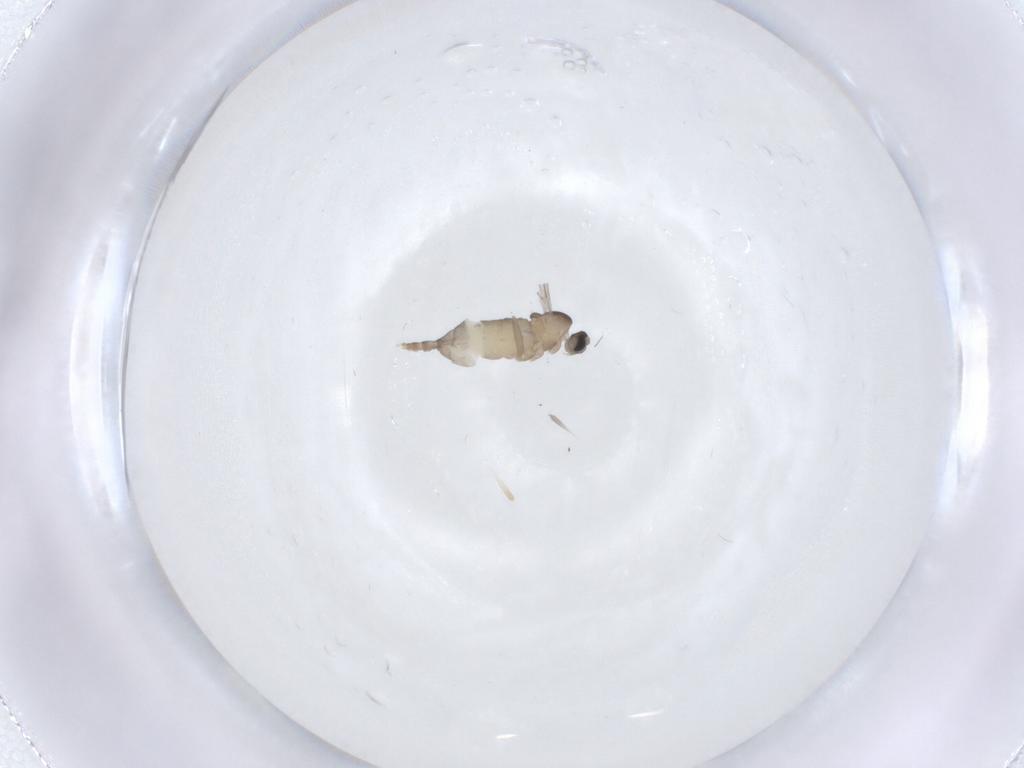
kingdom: Animalia
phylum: Arthropoda
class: Insecta
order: Diptera
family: Cecidomyiidae
